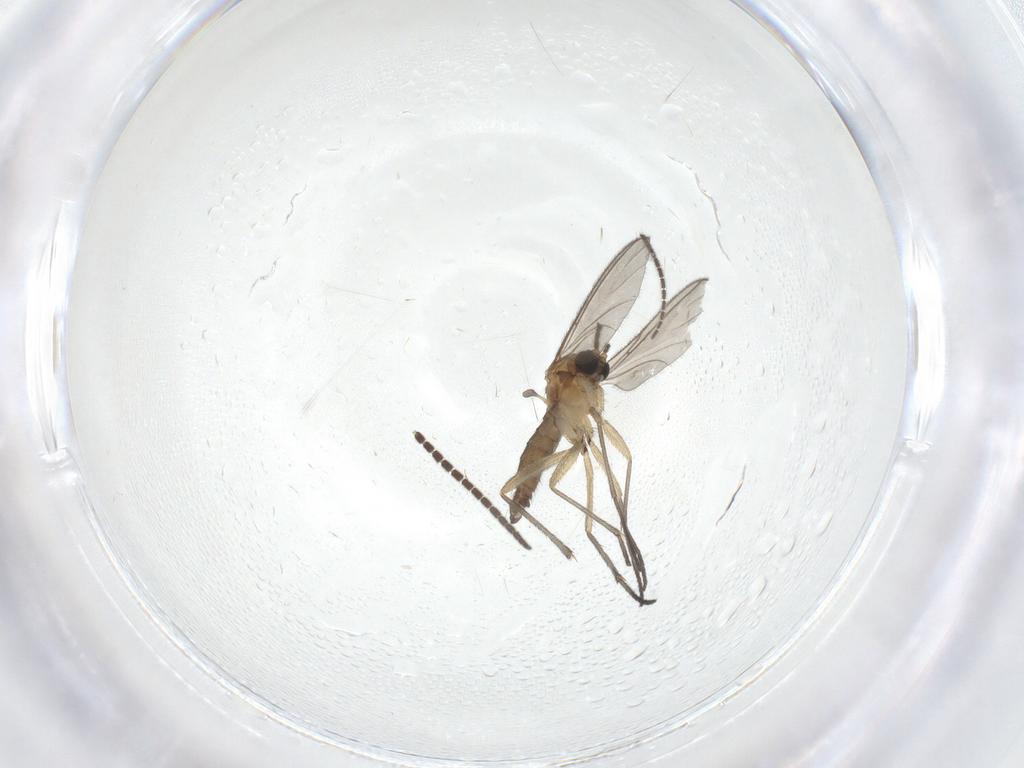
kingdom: Animalia
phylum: Arthropoda
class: Insecta
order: Diptera
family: Sciaridae
